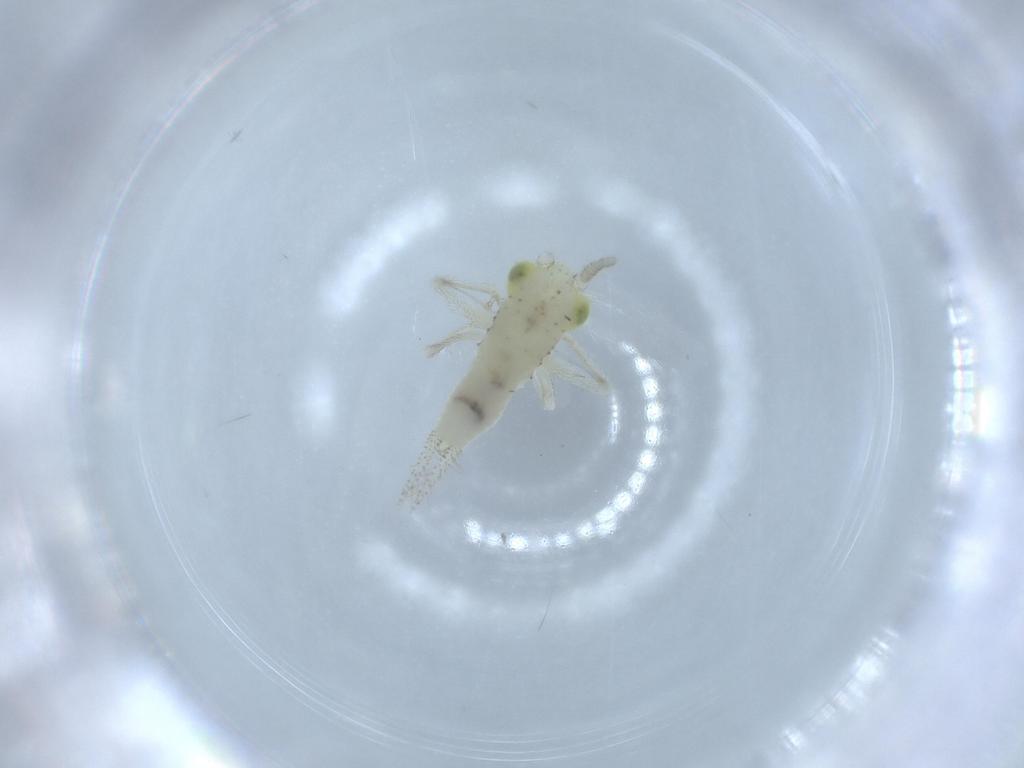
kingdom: Animalia
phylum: Arthropoda
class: Insecta
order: Orthoptera
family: Trigonidiidae
